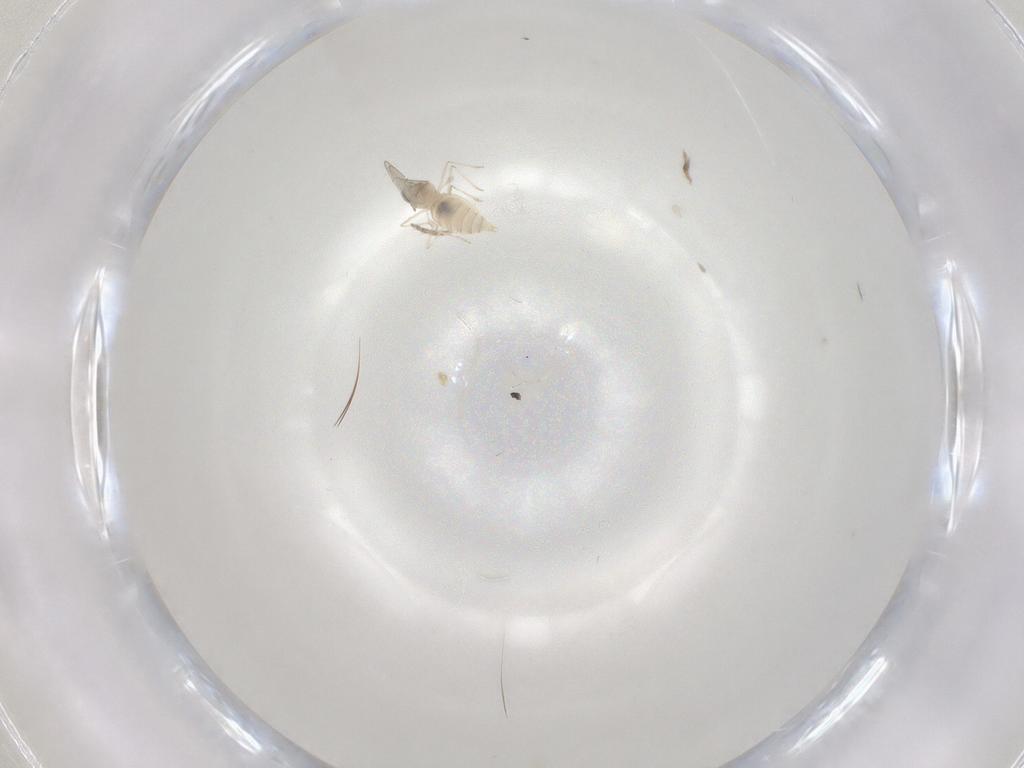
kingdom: Animalia
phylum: Arthropoda
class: Insecta
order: Diptera
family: Cecidomyiidae
